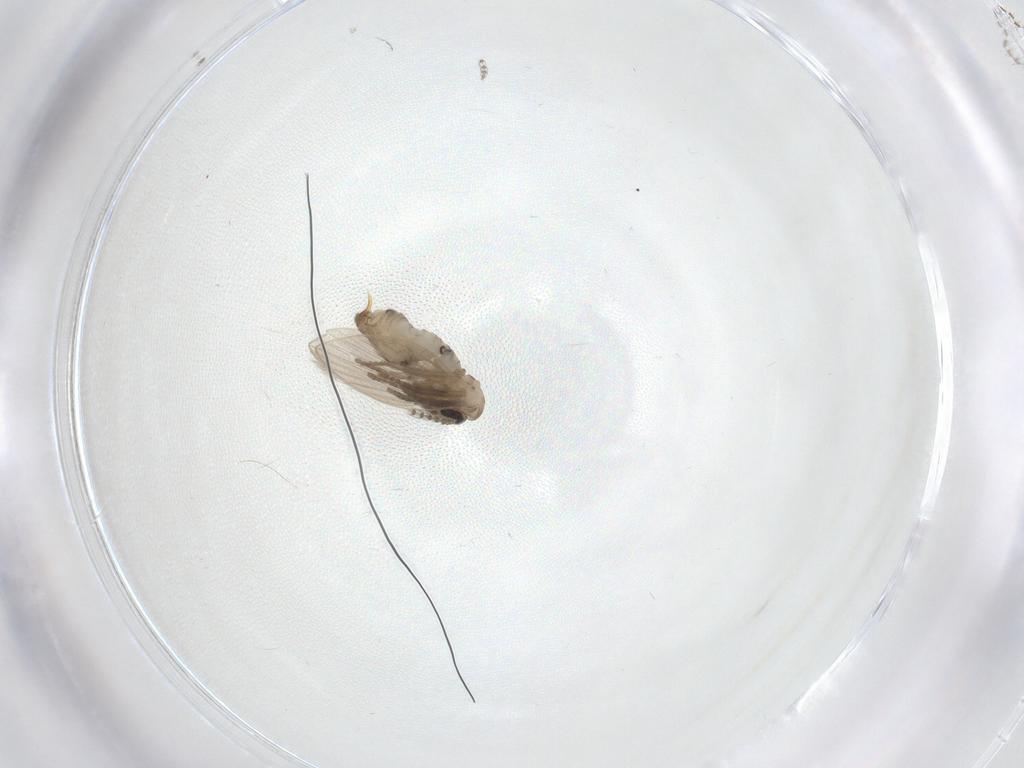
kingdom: Animalia
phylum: Arthropoda
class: Insecta
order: Diptera
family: Psychodidae
